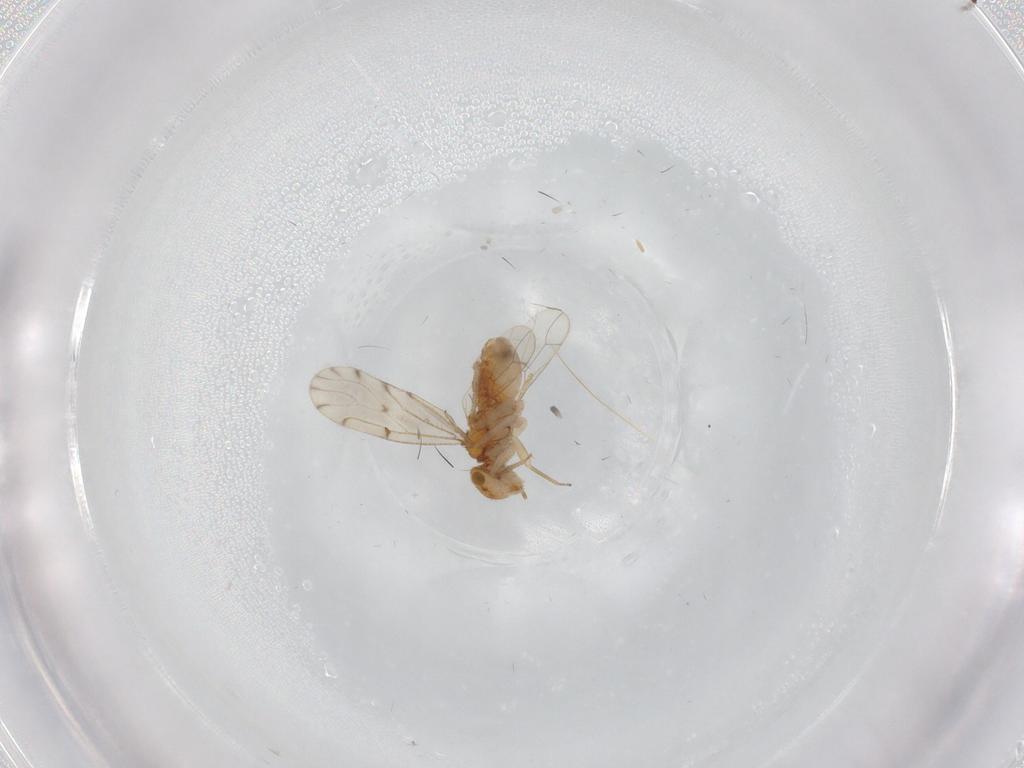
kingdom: Animalia
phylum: Arthropoda
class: Insecta
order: Psocodea
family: Ectopsocidae
